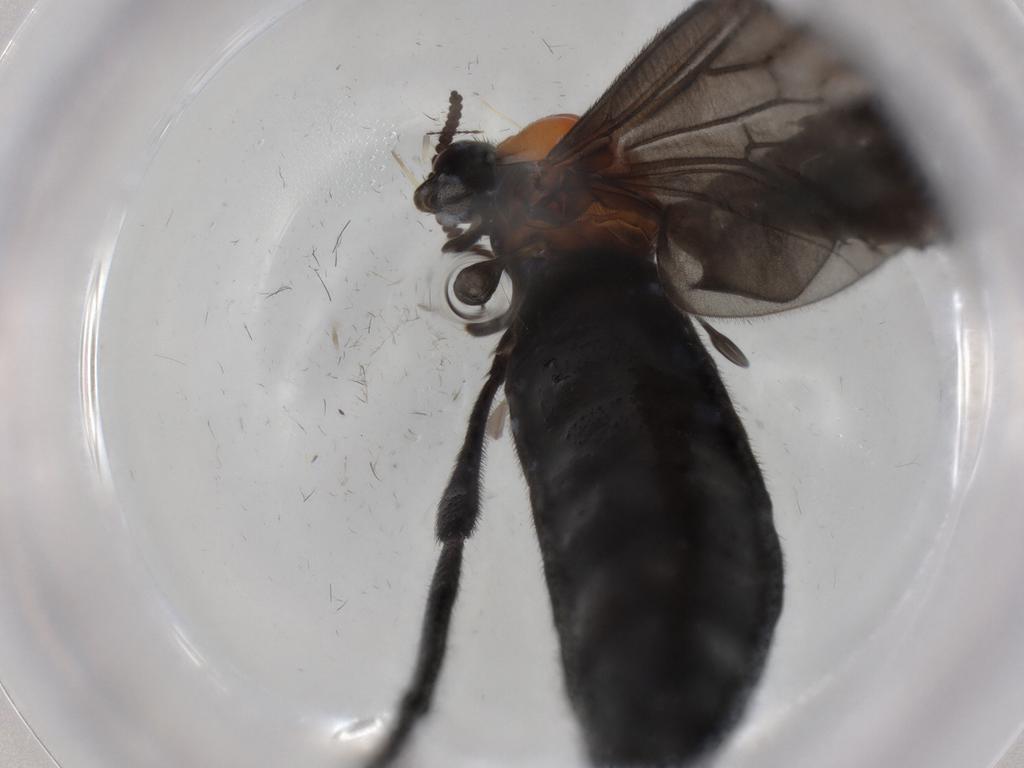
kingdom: Animalia
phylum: Arthropoda
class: Insecta
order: Diptera
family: Bibionidae
